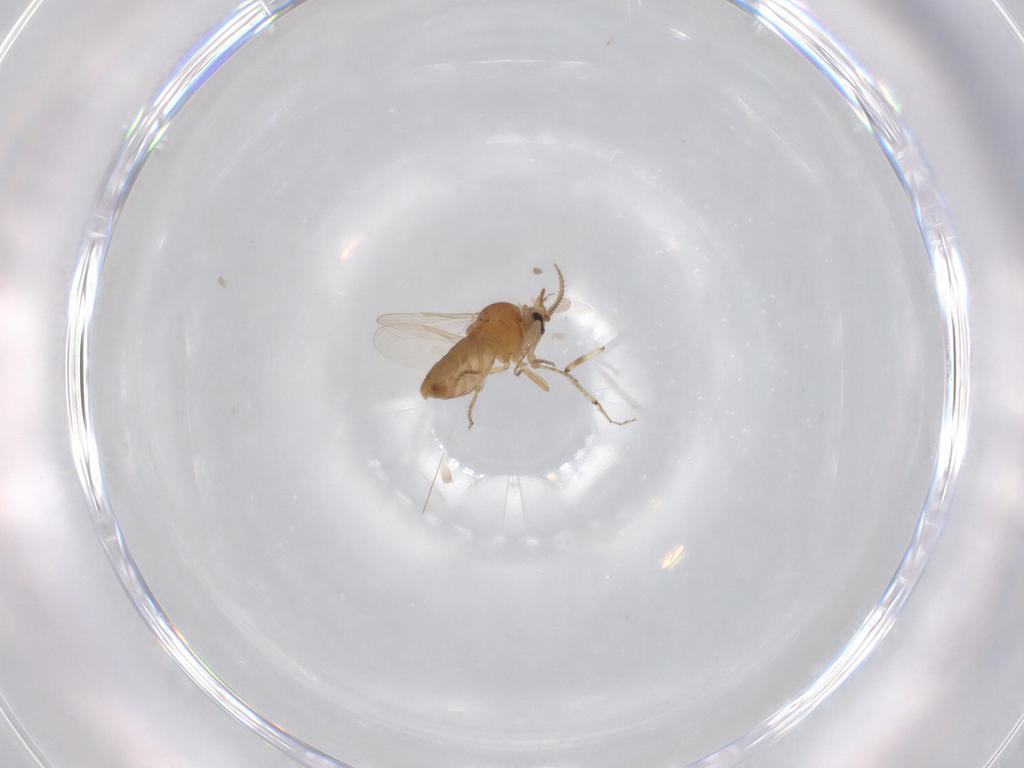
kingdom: Animalia
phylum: Arthropoda
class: Insecta
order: Diptera
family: Ceratopogonidae
